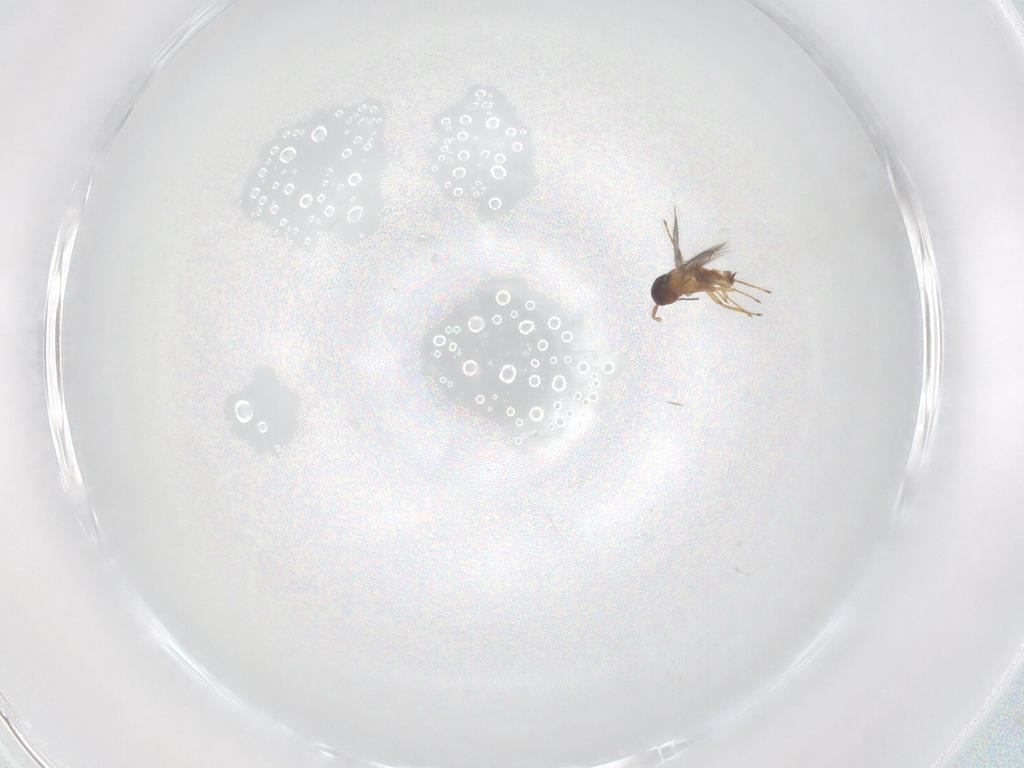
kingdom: Animalia
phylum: Arthropoda
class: Insecta
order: Hymenoptera
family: Mymaridae
